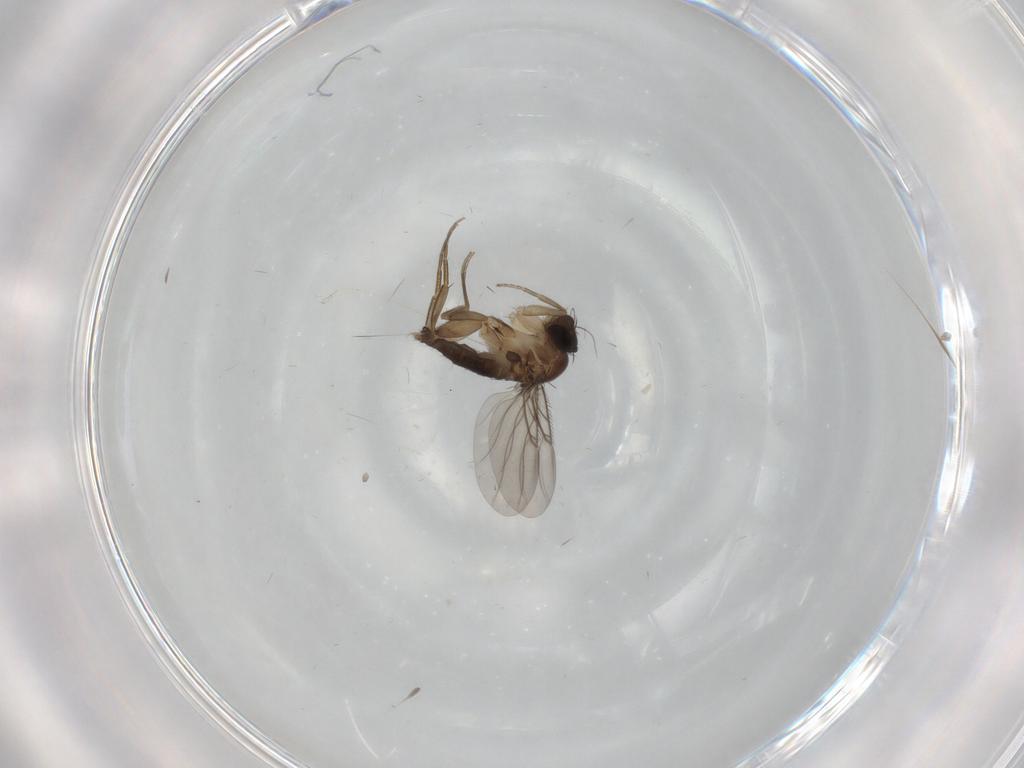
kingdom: Animalia
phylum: Arthropoda
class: Insecta
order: Diptera
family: Phoridae
